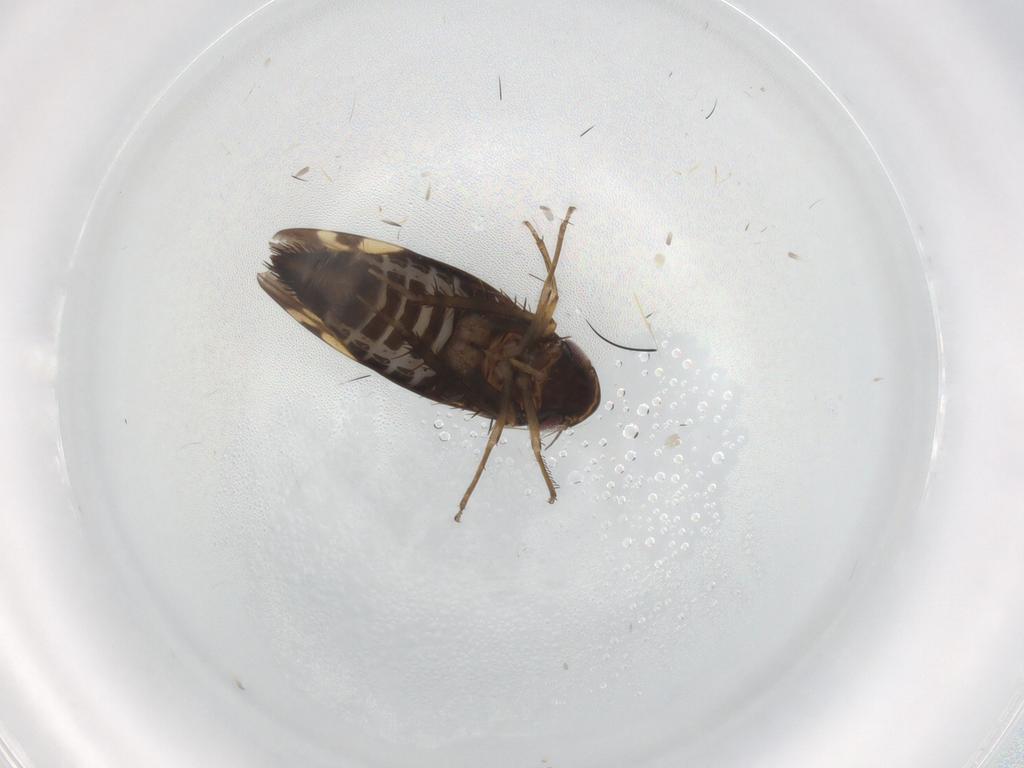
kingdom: Animalia
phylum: Arthropoda
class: Insecta
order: Hemiptera
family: Cicadellidae
